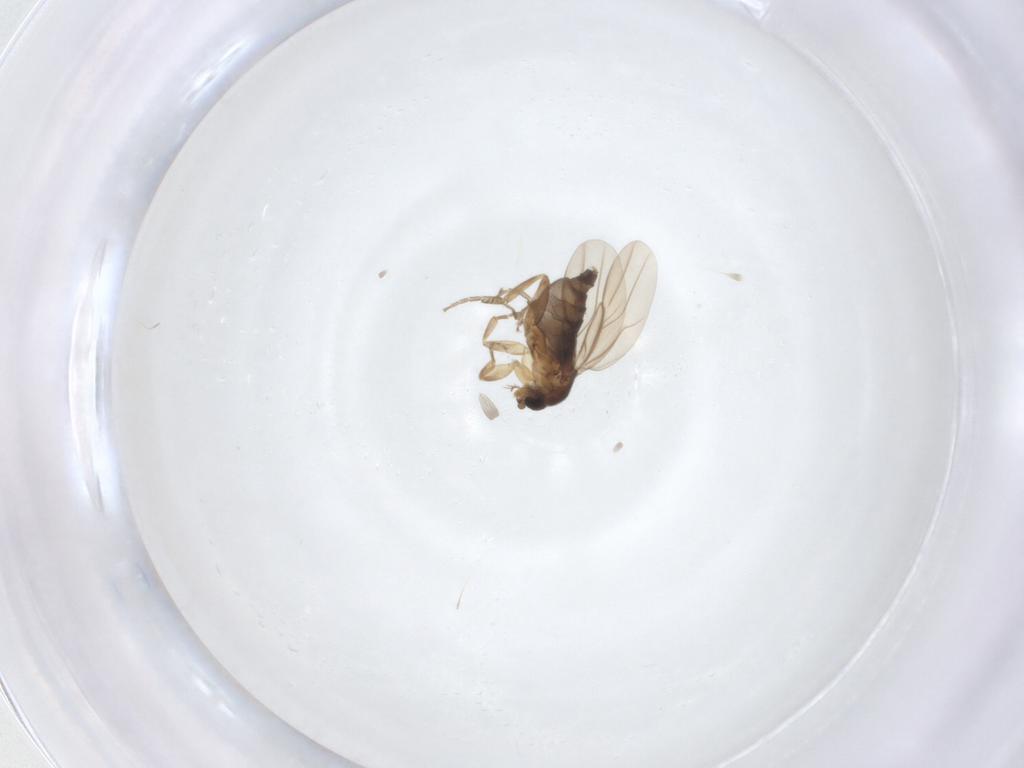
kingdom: Animalia
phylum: Arthropoda
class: Insecta
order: Diptera
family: Phoridae
